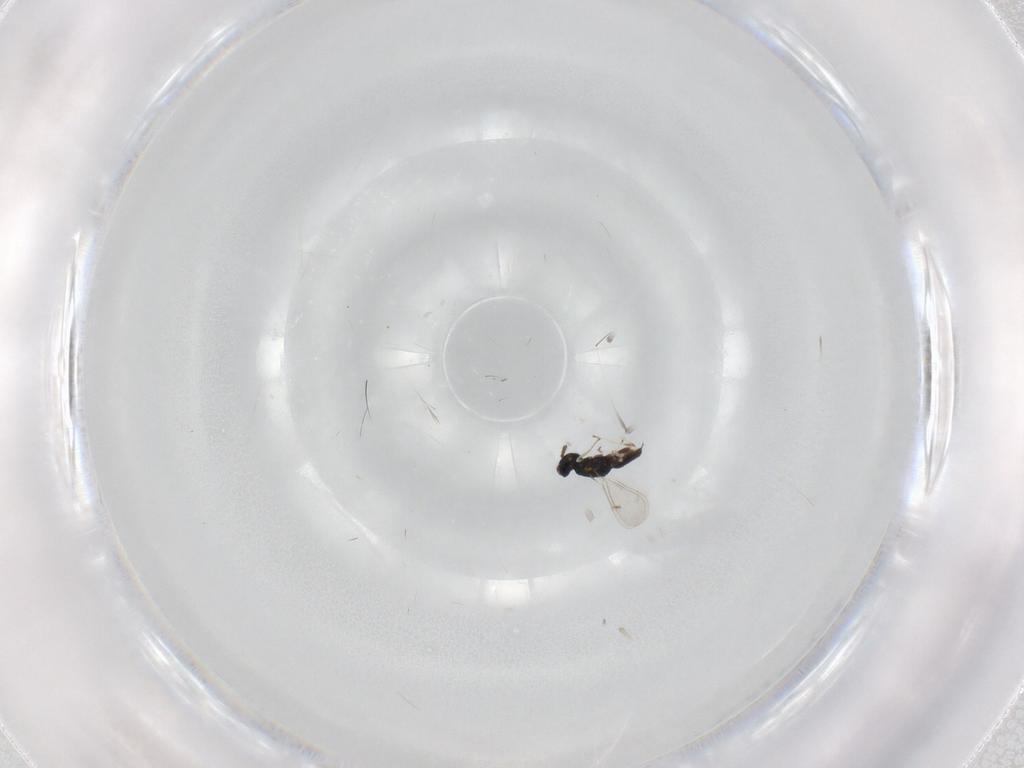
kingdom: Animalia
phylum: Arthropoda
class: Insecta
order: Hymenoptera
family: Eulophidae
